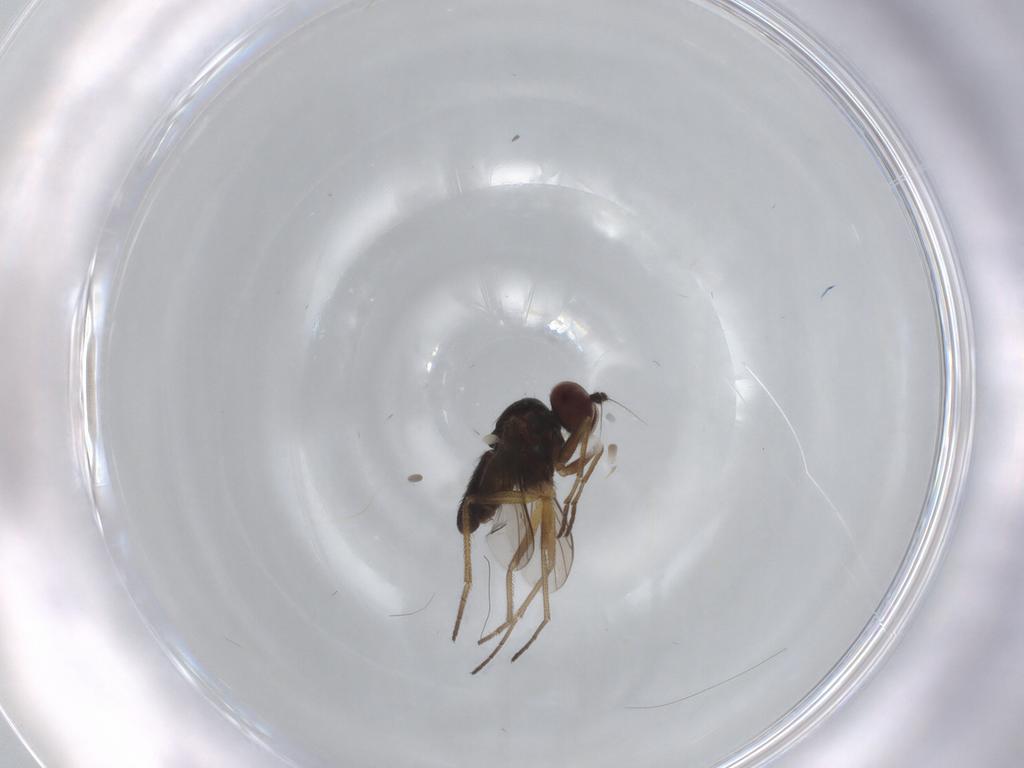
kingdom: Animalia
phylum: Arthropoda
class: Insecta
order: Diptera
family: Dolichopodidae
